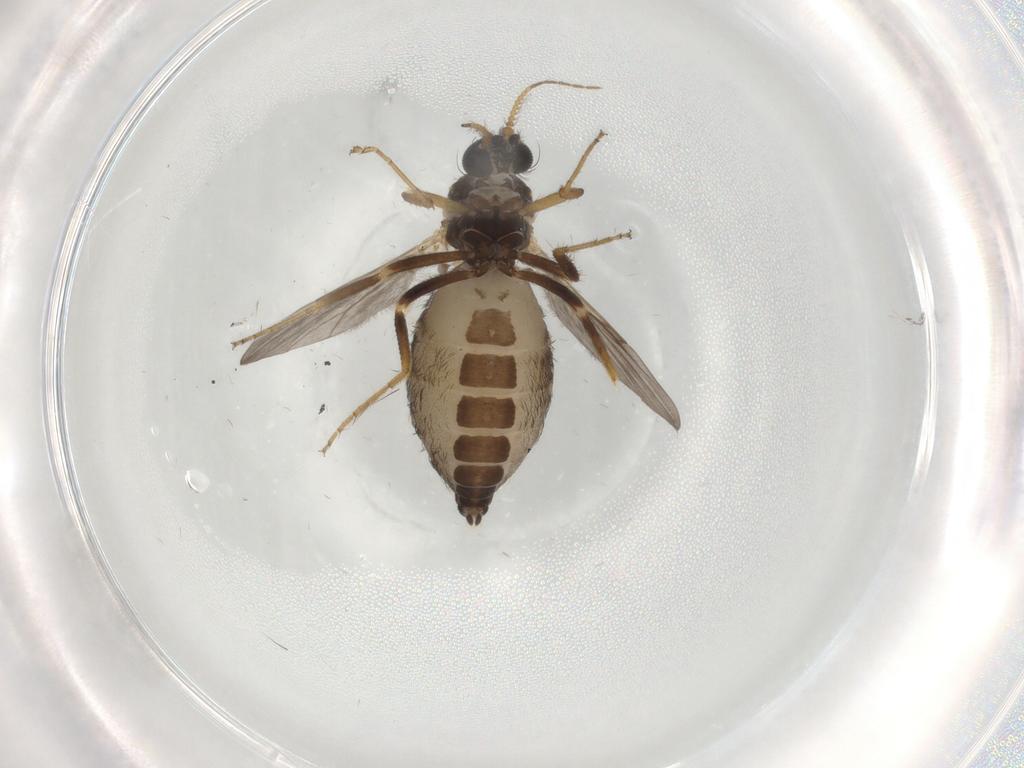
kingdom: Animalia
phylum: Arthropoda
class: Insecta
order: Diptera
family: Ceratopogonidae
